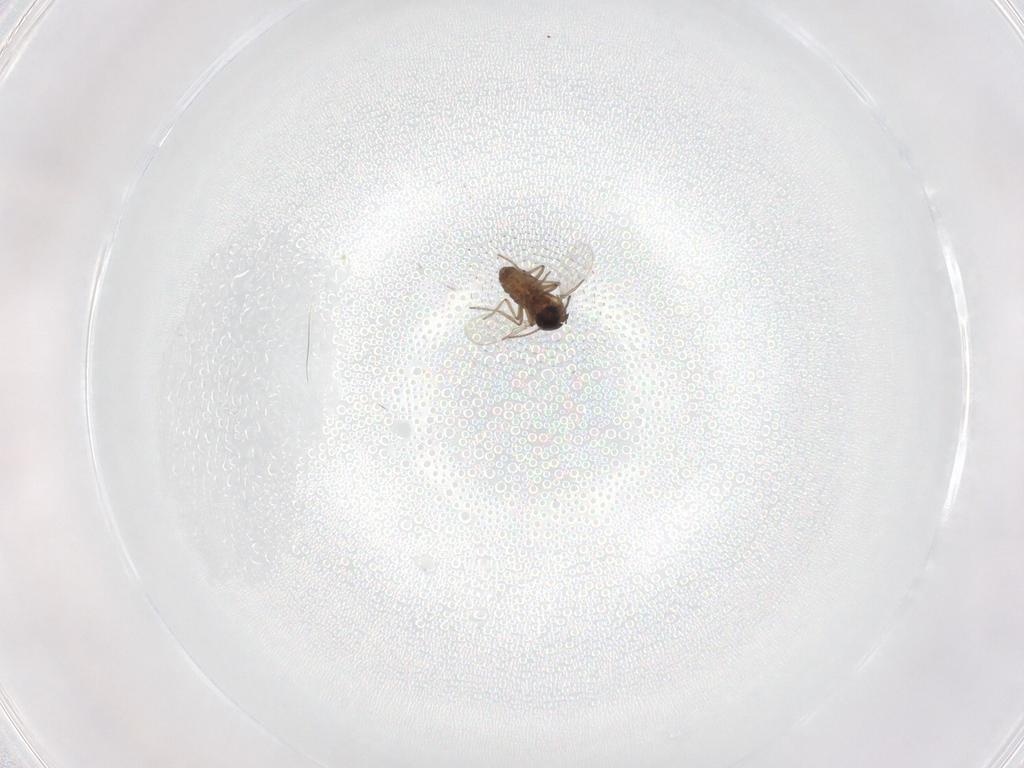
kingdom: Animalia
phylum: Arthropoda
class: Insecta
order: Diptera
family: Ceratopogonidae
